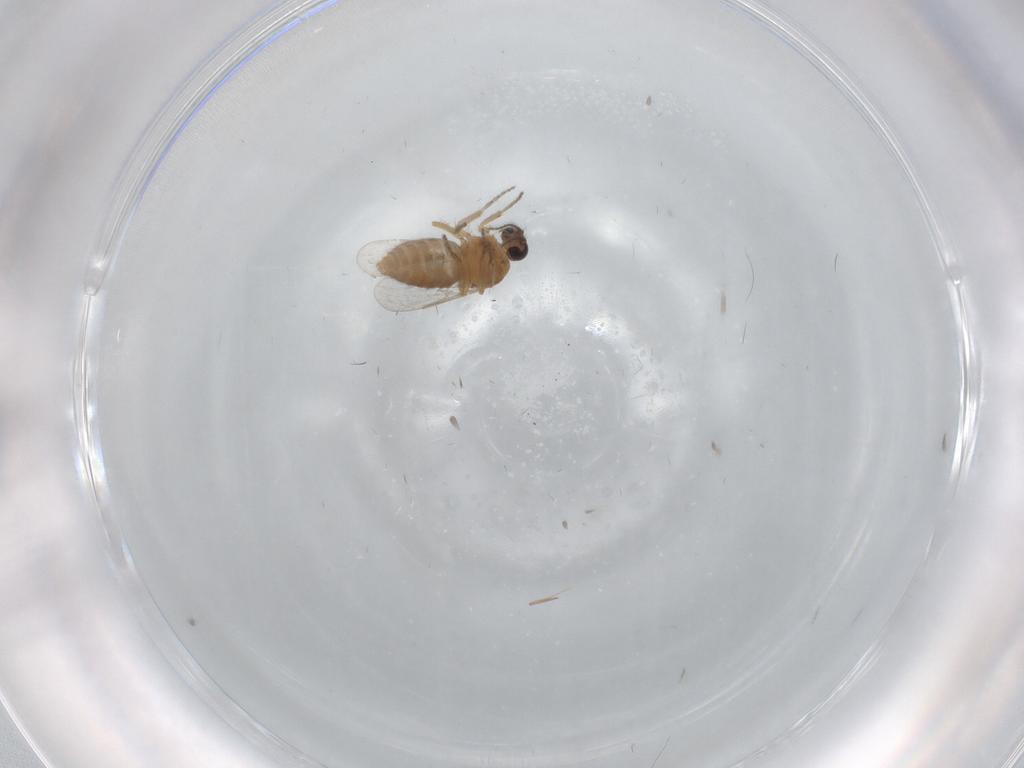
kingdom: Animalia
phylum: Arthropoda
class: Insecta
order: Diptera
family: Ceratopogonidae
